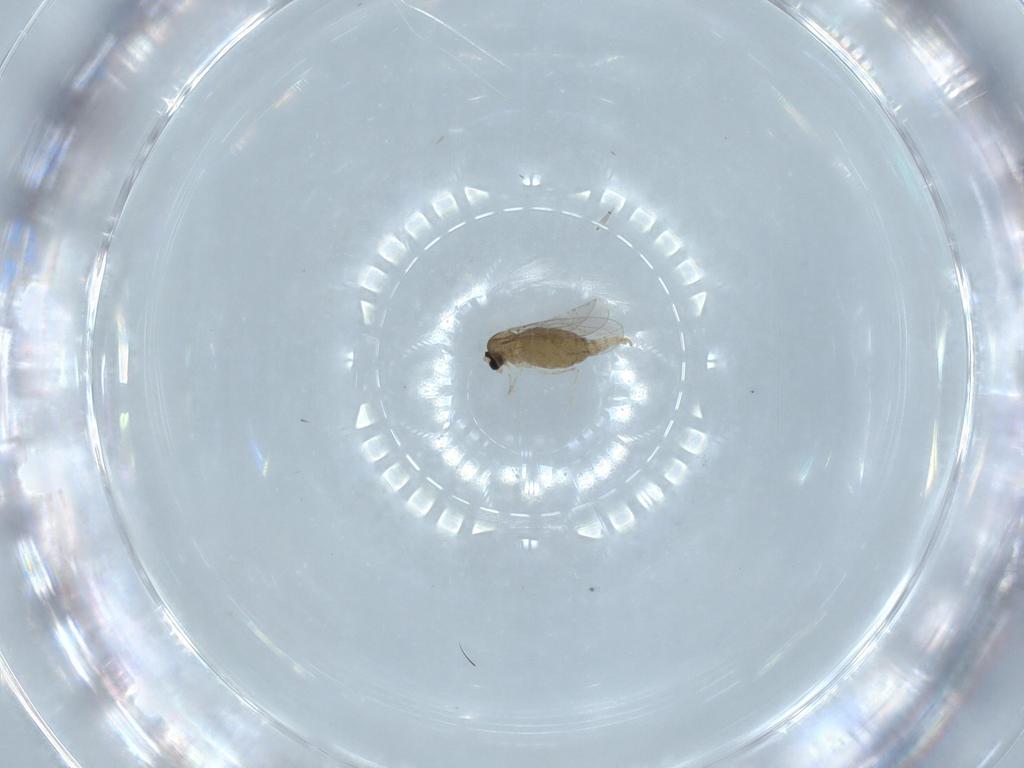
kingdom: Animalia
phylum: Arthropoda
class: Insecta
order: Diptera
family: Cecidomyiidae
